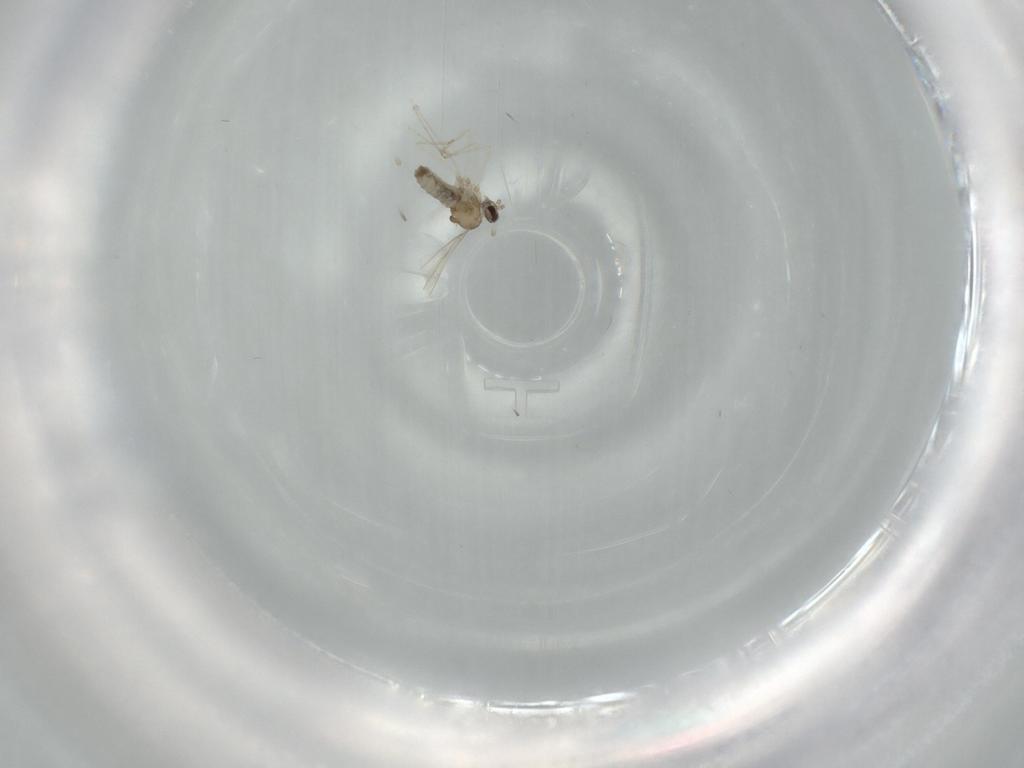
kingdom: Animalia
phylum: Arthropoda
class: Insecta
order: Diptera
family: Cecidomyiidae
